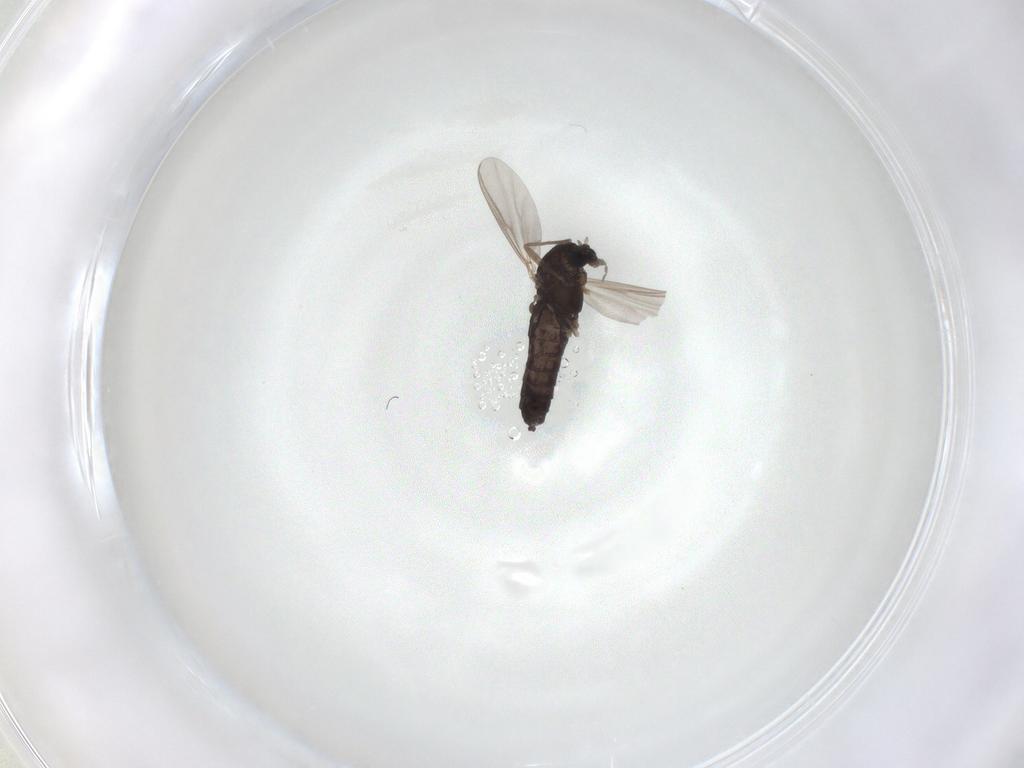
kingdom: Animalia
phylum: Arthropoda
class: Insecta
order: Diptera
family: Chironomidae
